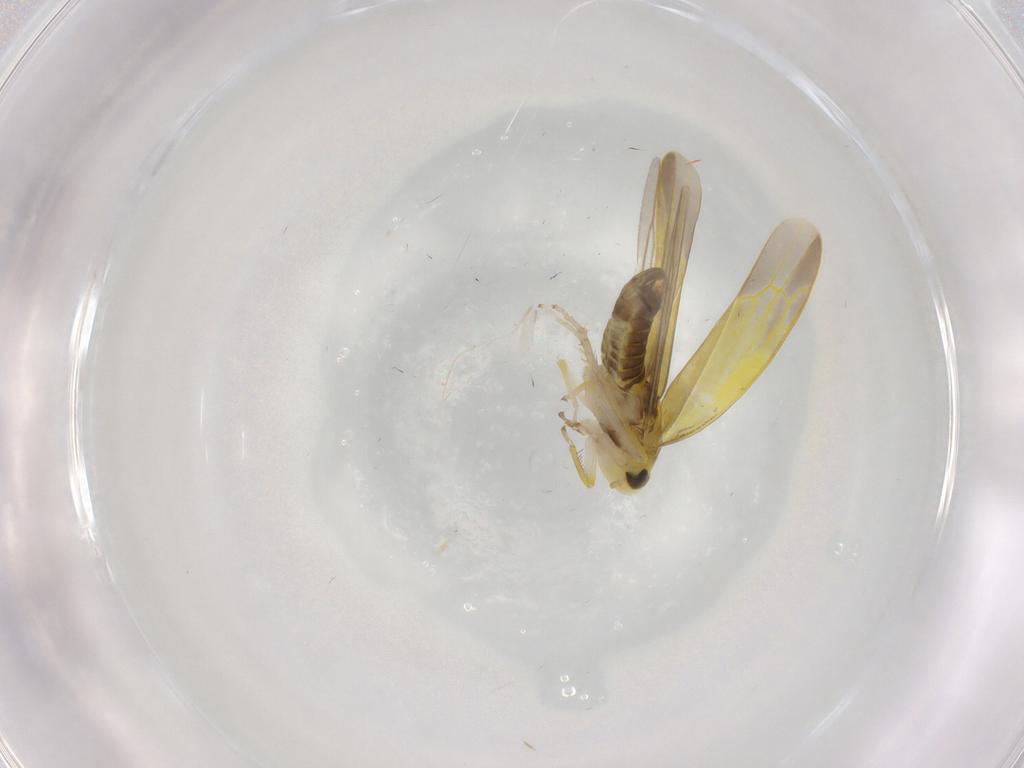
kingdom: Animalia
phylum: Arthropoda
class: Insecta
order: Hemiptera
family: Cicadellidae
